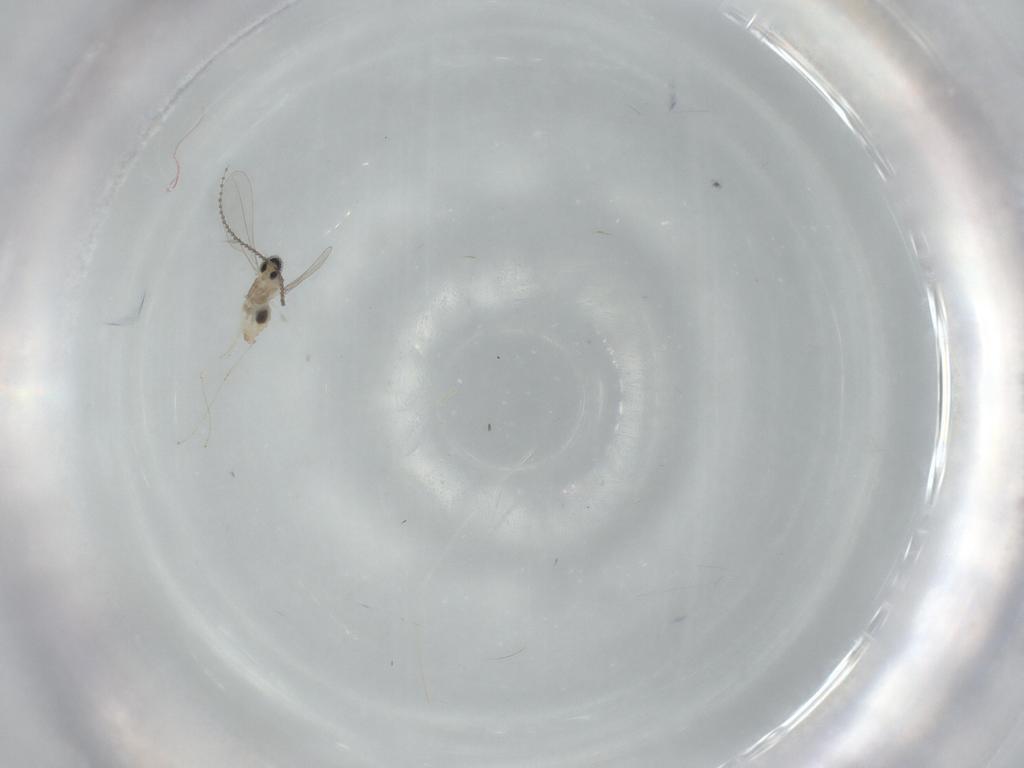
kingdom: Animalia
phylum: Arthropoda
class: Insecta
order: Diptera
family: Cecidomyiidae
